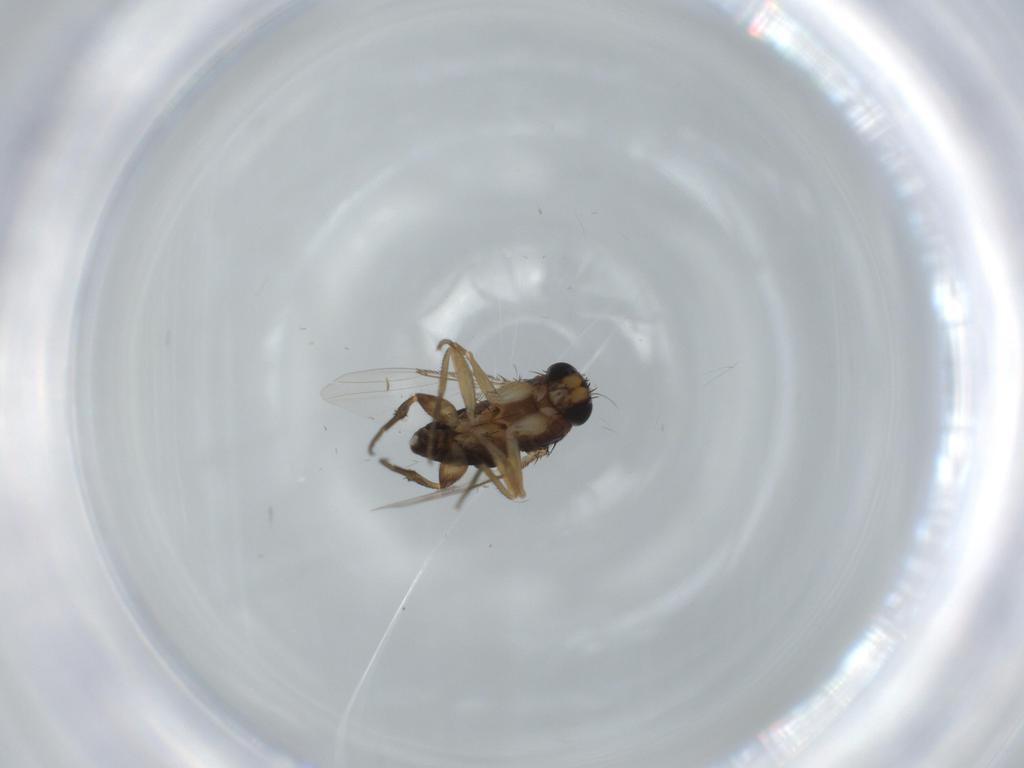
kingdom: Animalia
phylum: Arthropoda
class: Insecta
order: Diptera
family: Phoridae
